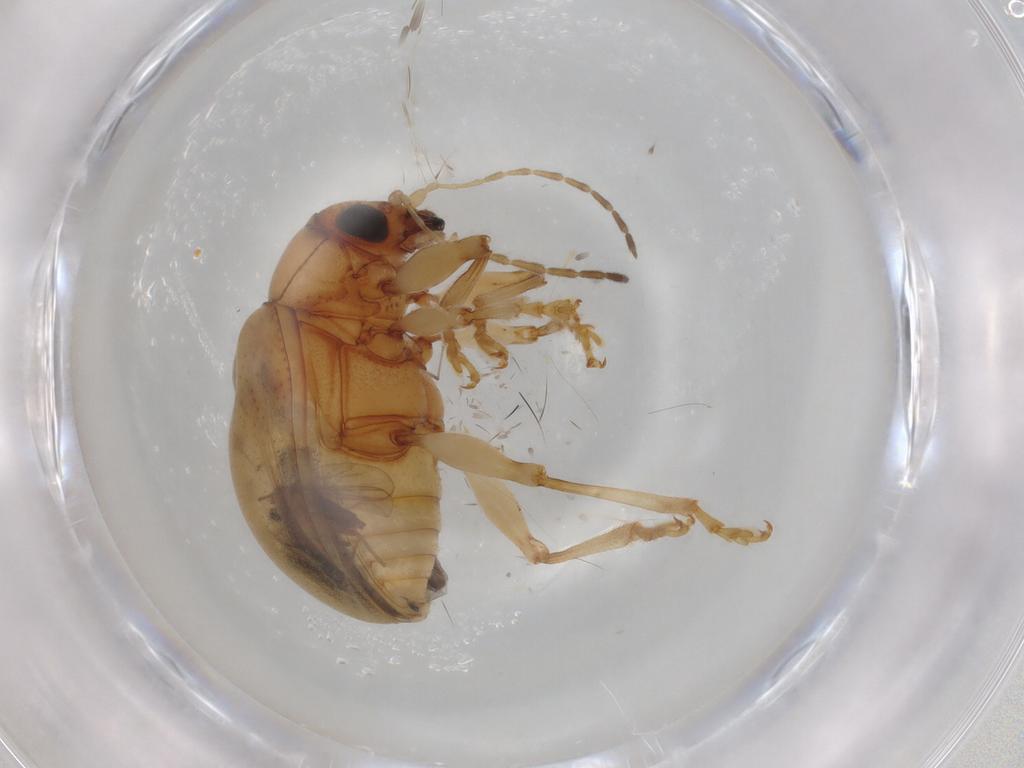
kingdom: Animalia
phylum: Arthropoda
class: Insecta
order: Coleoptera
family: Chrysomelidae
